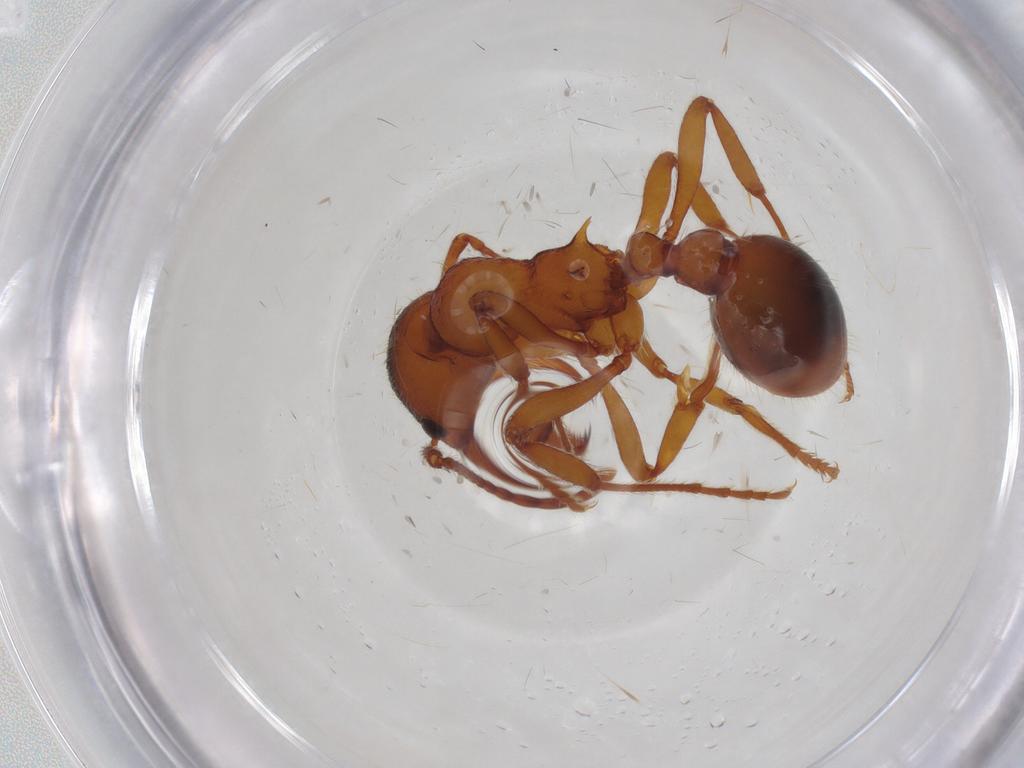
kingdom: Animalia
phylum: Arthropoda
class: Insecta
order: Hymenoptera
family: Formicidae
